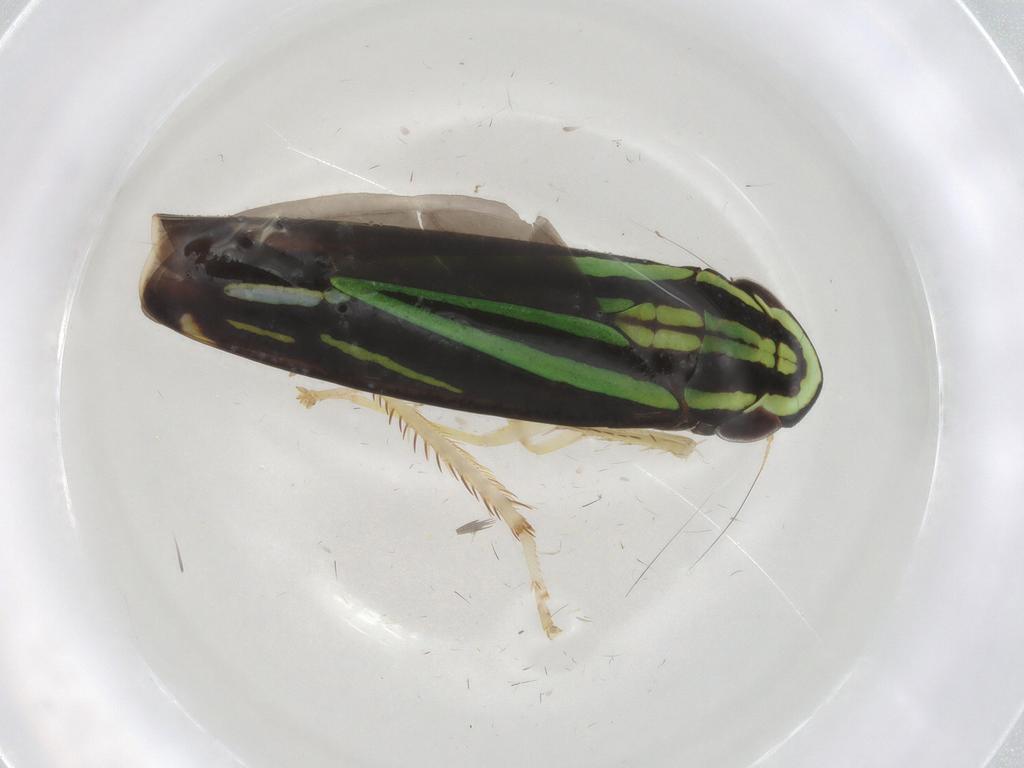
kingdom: Animalia
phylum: Arthropoda
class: Insecta
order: Hemiptera
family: Cicadellidae
